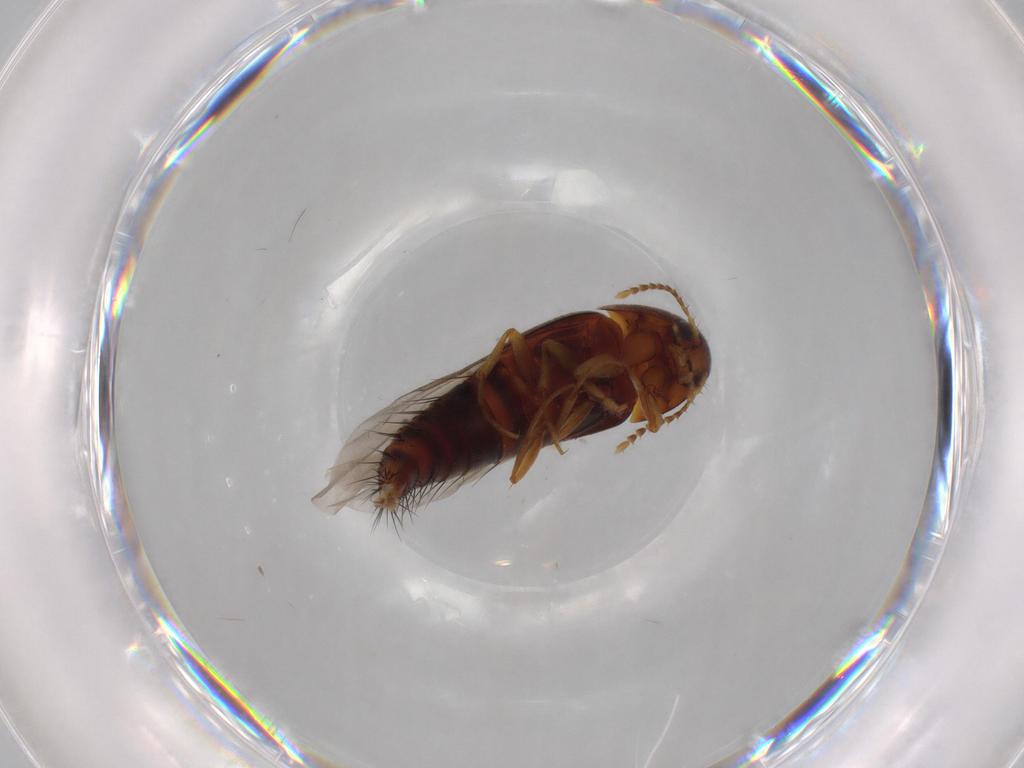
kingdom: Animalia
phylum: Arthropoda
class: Insecta
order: Coleoptera
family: Staphylinidae
